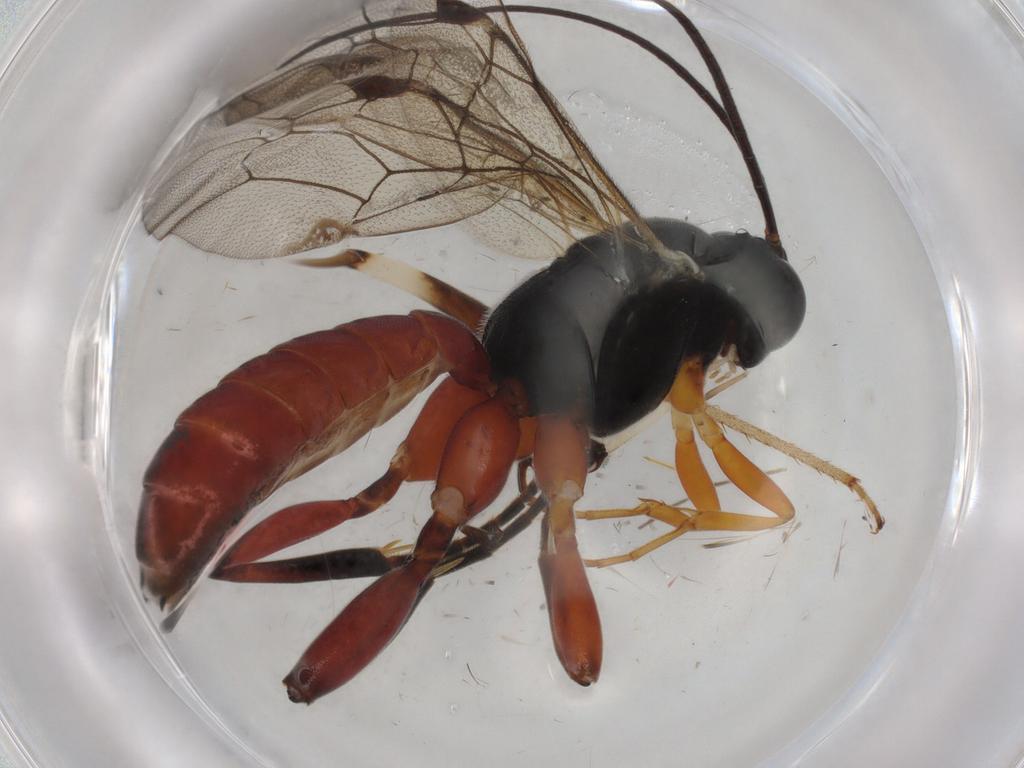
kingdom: Animalia
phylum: Arthropoda
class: Insecta
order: Hymenoptera
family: Ichneumonidae
